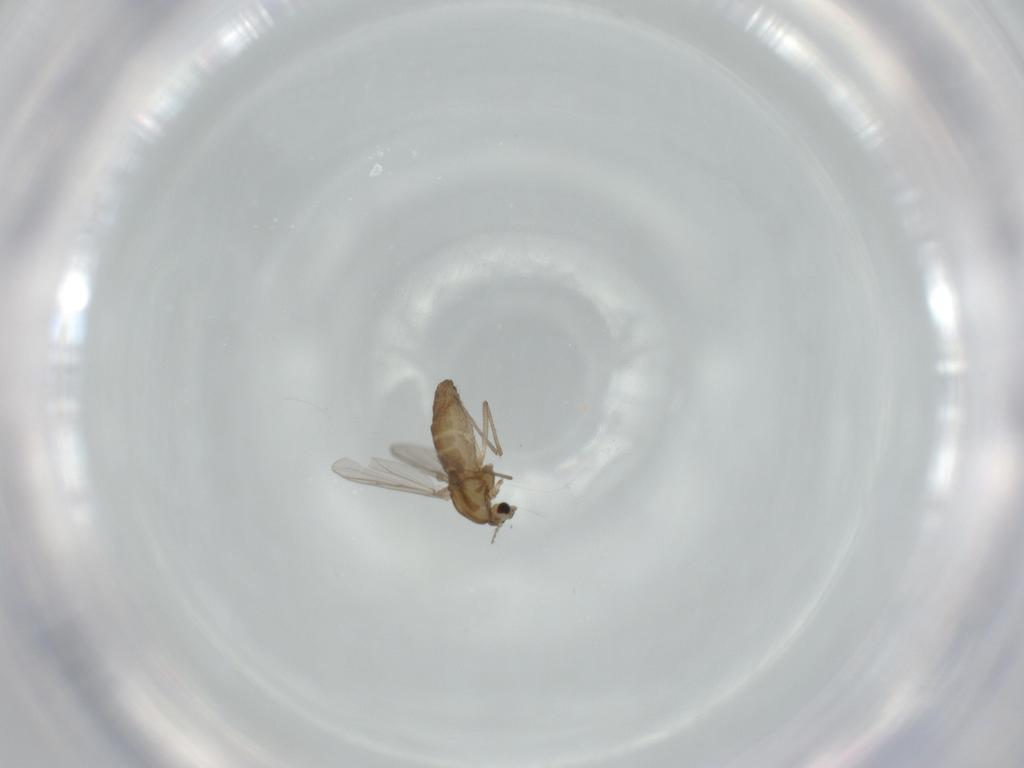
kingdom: Animalia
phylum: Arthropoda
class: Insecta
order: Diptera
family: Chironomidae
